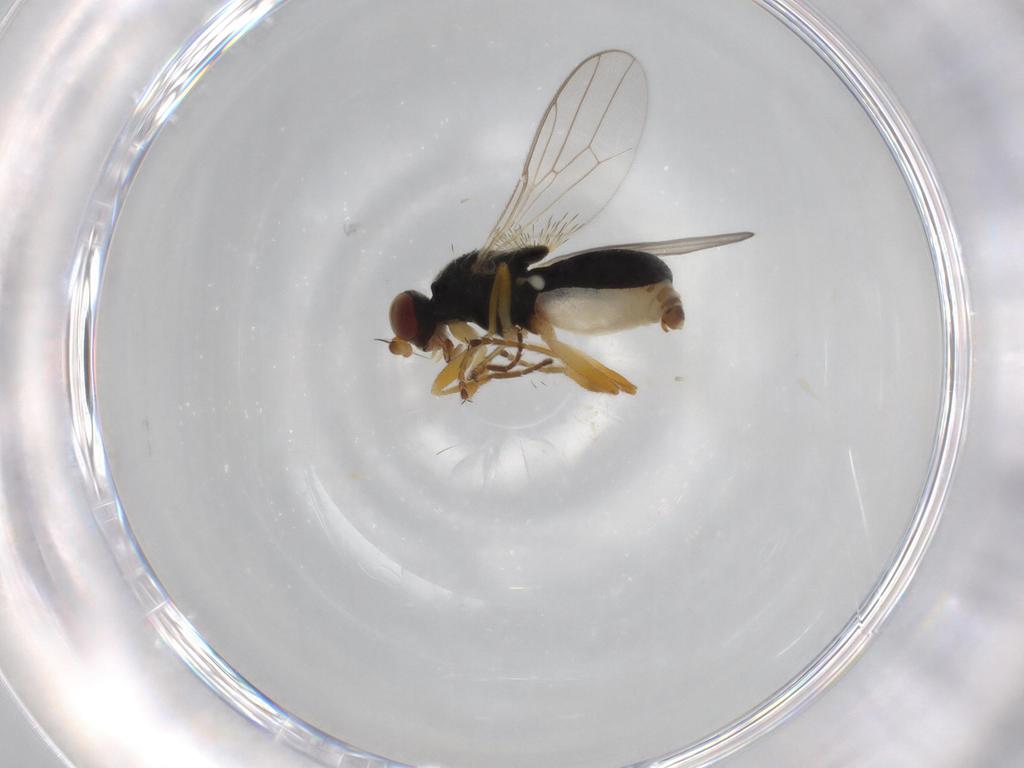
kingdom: Animalia
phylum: Arthropoda
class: Insecta
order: Diptera
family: Chloropidae
